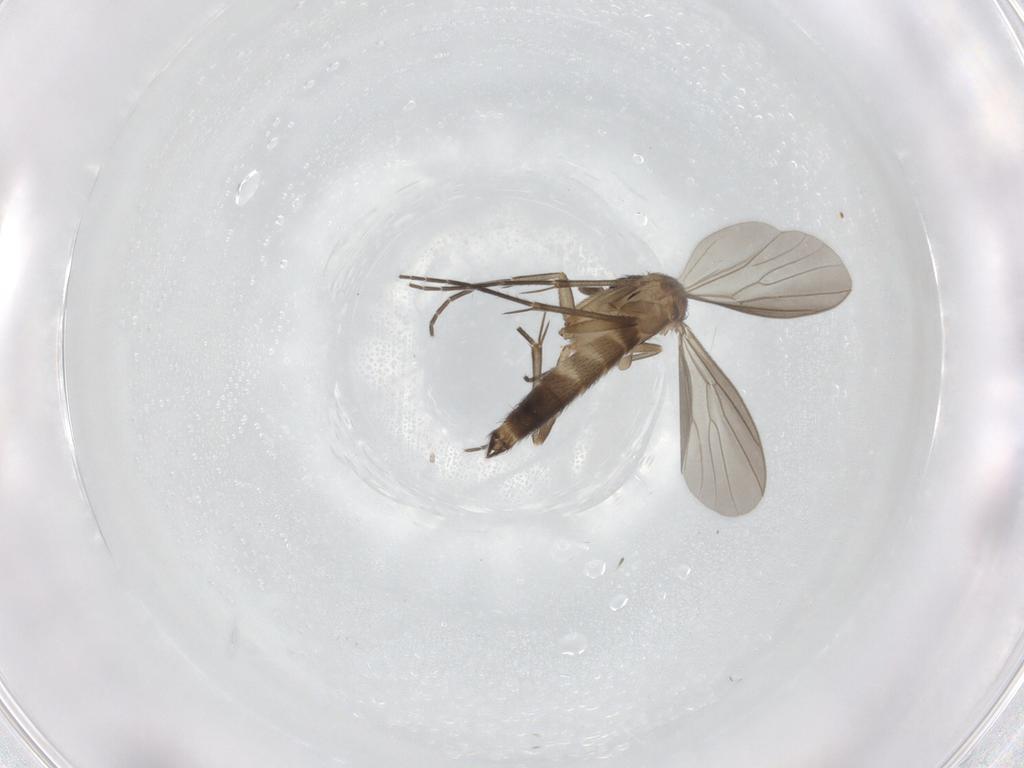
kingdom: Animalia
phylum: Arthropoda
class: Insecta
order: Diptera
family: Mycetophilidae
